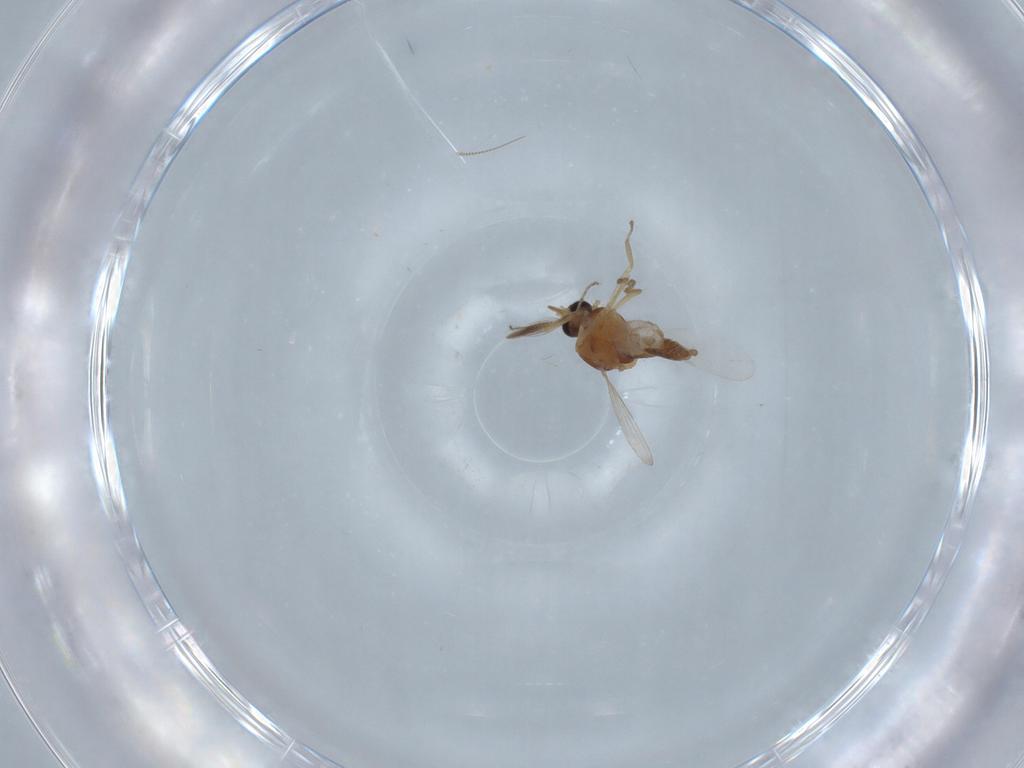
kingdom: Animalia
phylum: Arthropoda
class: Insecta
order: Diptera
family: Ceratopogonidae
